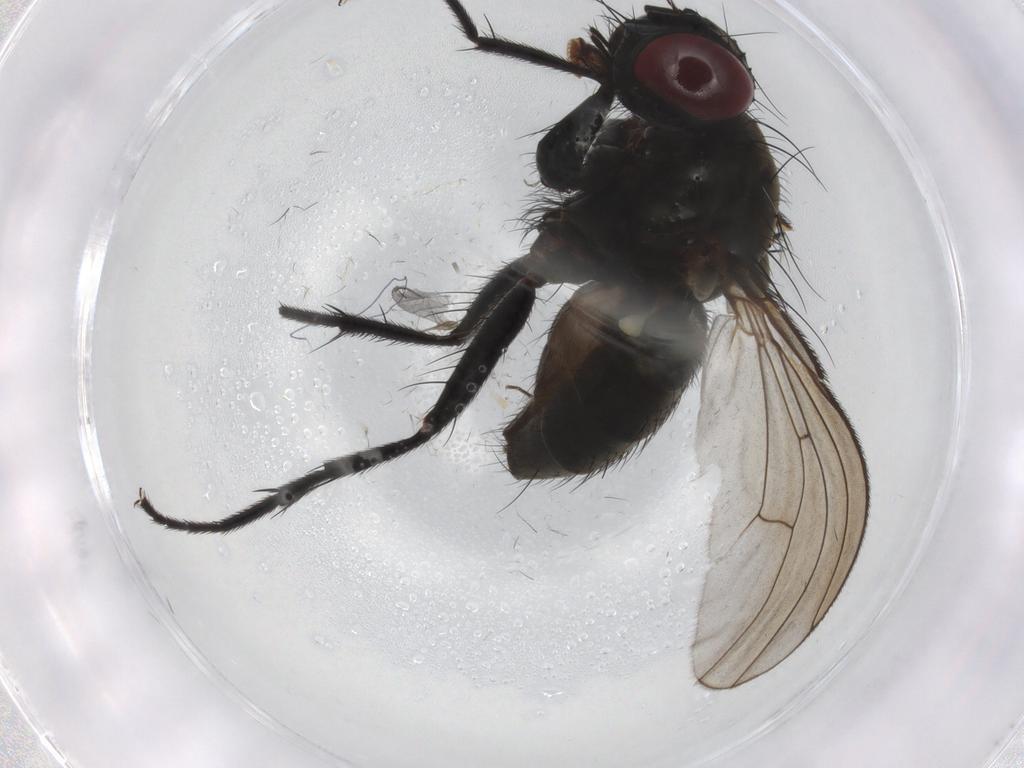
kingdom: Animalia
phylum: Arthropoda
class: Insecta
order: Diptera
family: Muscidae
